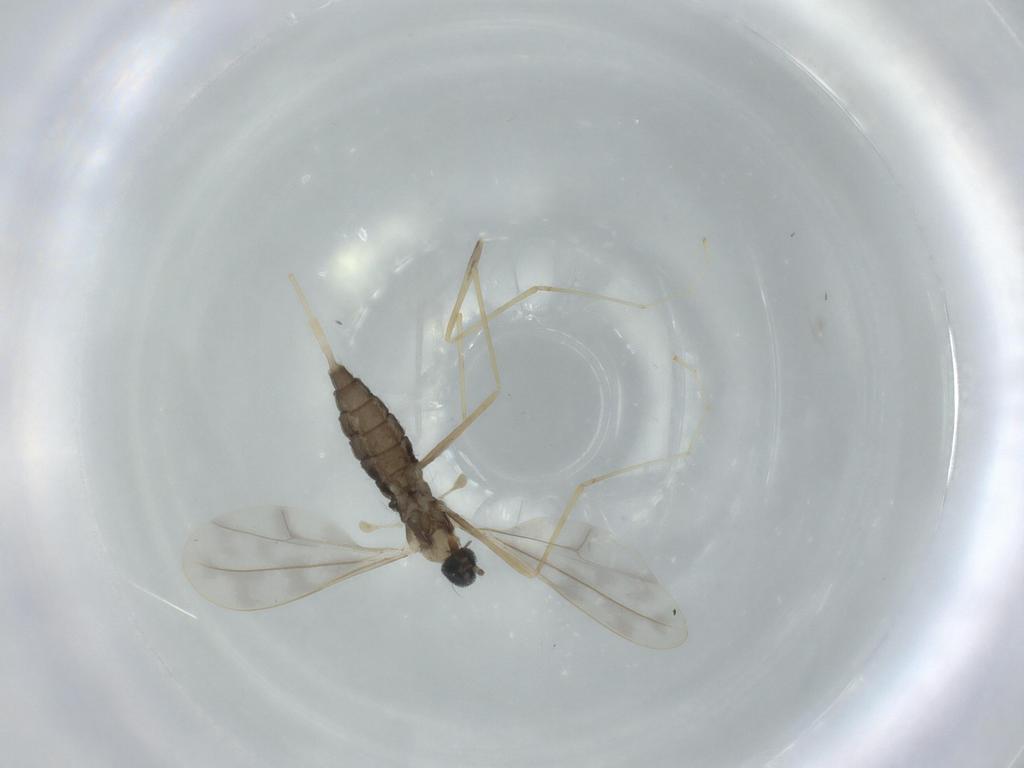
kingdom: Animalia
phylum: Arthropoda
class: Insecta
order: Diptera
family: Cecidomyiidae
